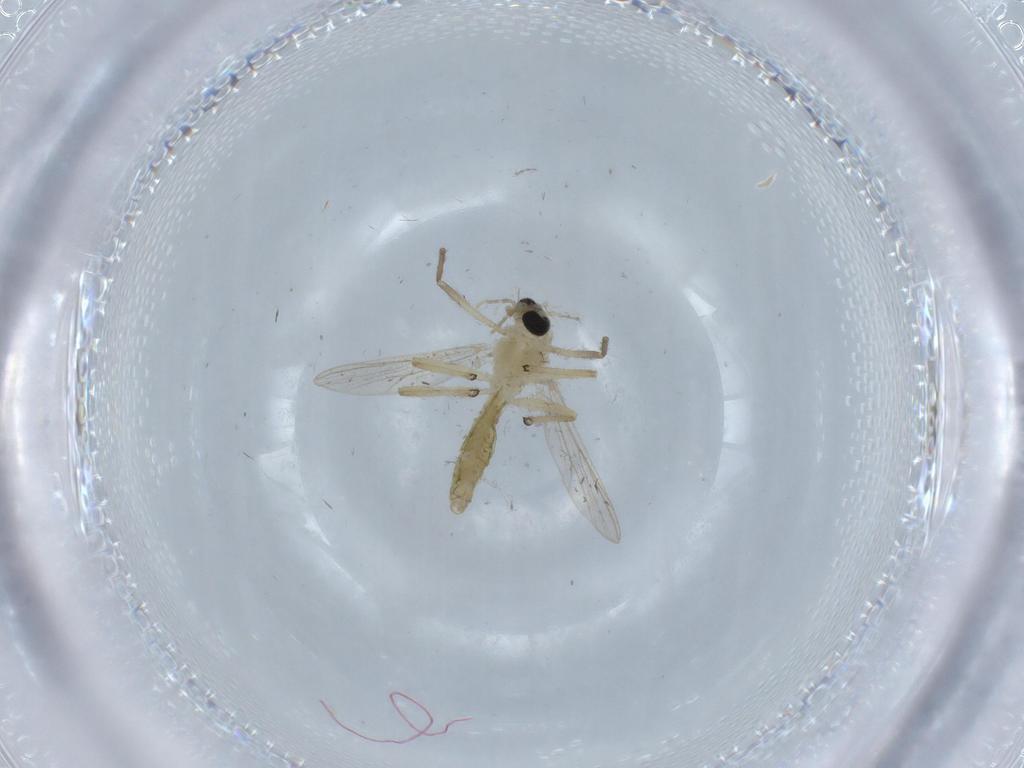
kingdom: Animalia
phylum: Arthropoda
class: Insecta
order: Diptera
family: Chironomidae
